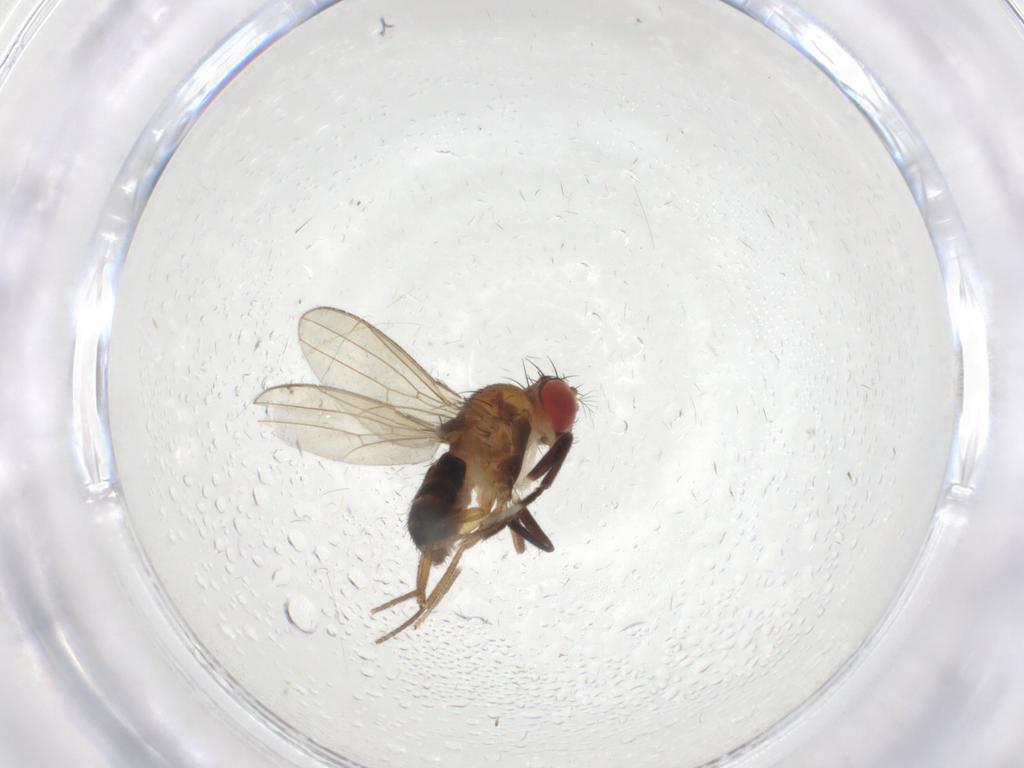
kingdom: Animalia
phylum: Arthropoda
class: Insecta
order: Diptera
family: Drosophilidae
